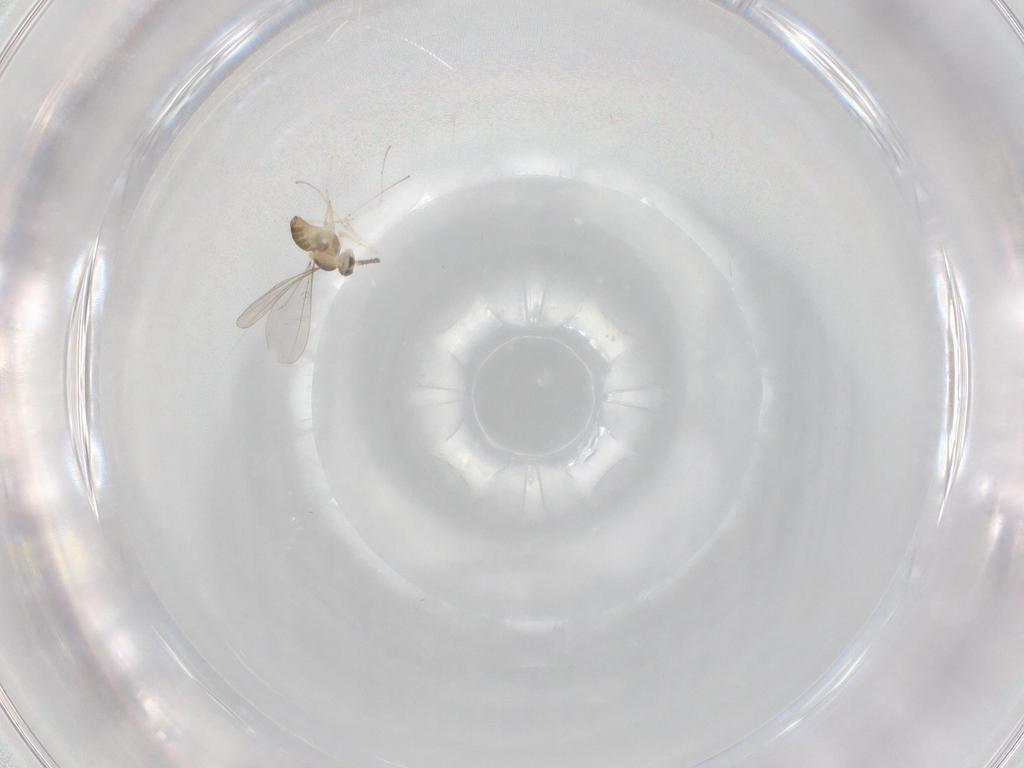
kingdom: Animalia
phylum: Arthropoda
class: Insecta
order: Diptera
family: Cecidomyiidae
